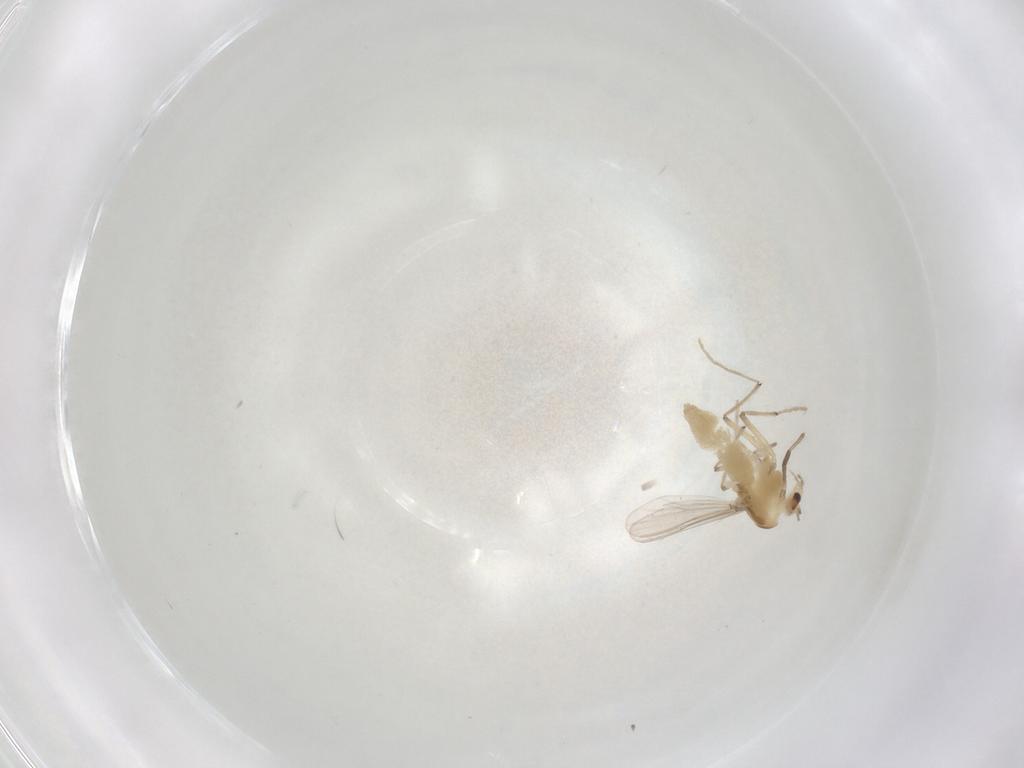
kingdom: Animalia
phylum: Arthropoda
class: Insecta
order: Diptera
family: Chironomidae
